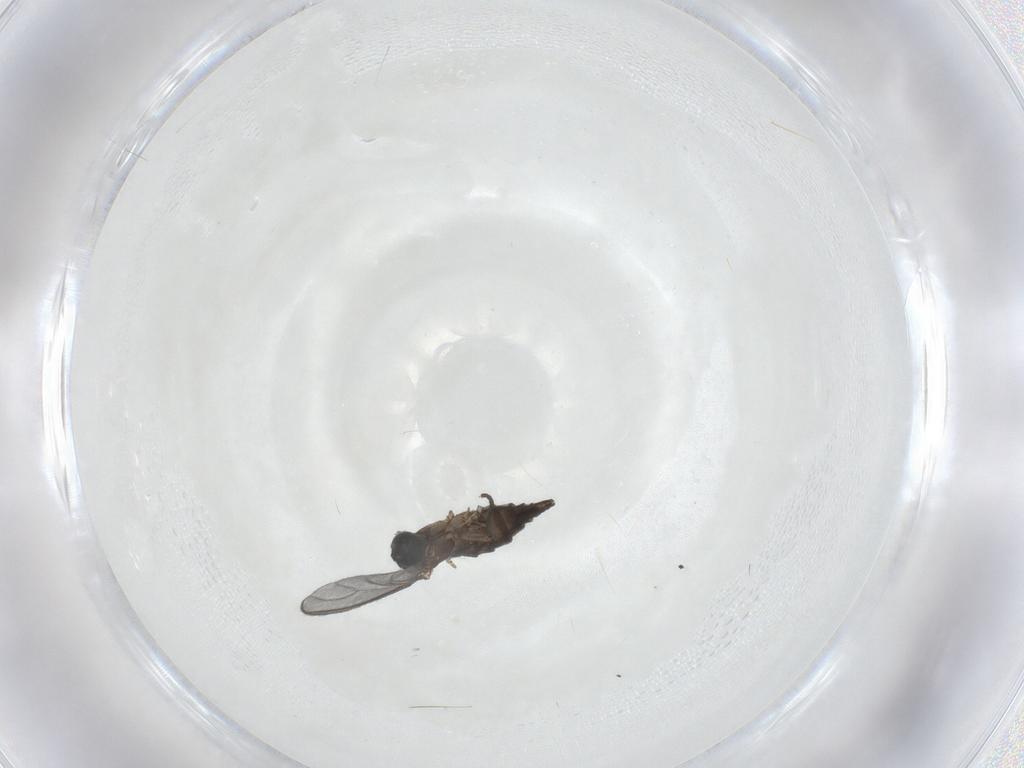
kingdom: Animalia
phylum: Arthropoda
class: Insecta
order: Diptera
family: Sciaridae
